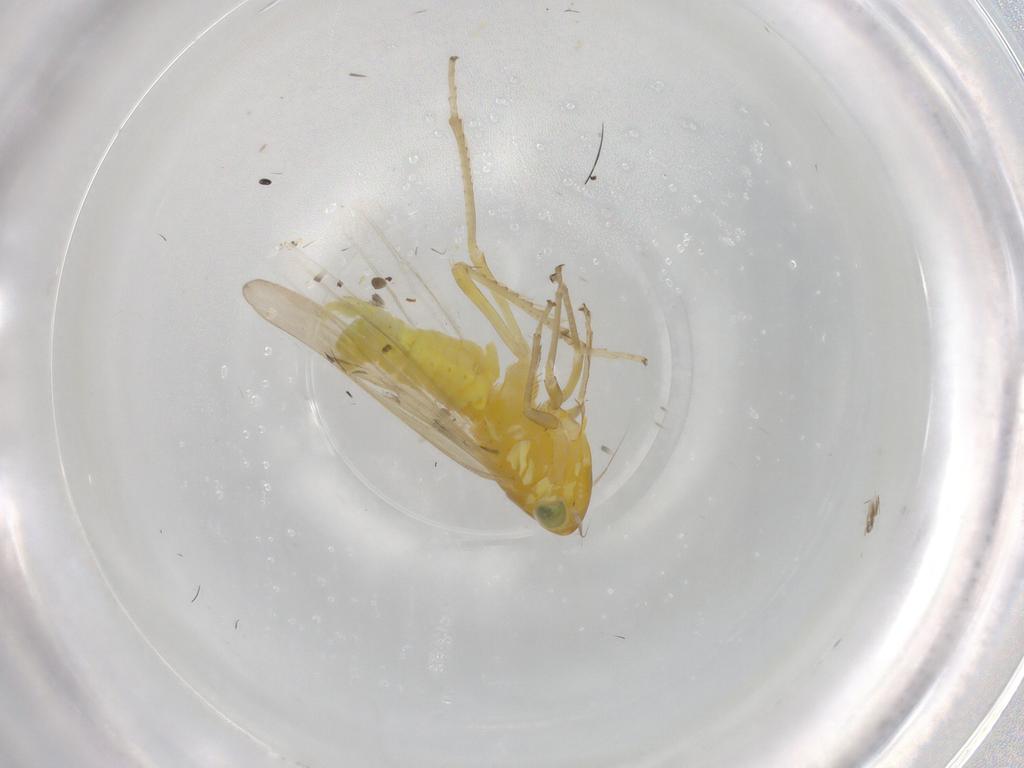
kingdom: Animalia
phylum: Arthropoda
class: Insecta
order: Hemiptera
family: Cicadellidae
